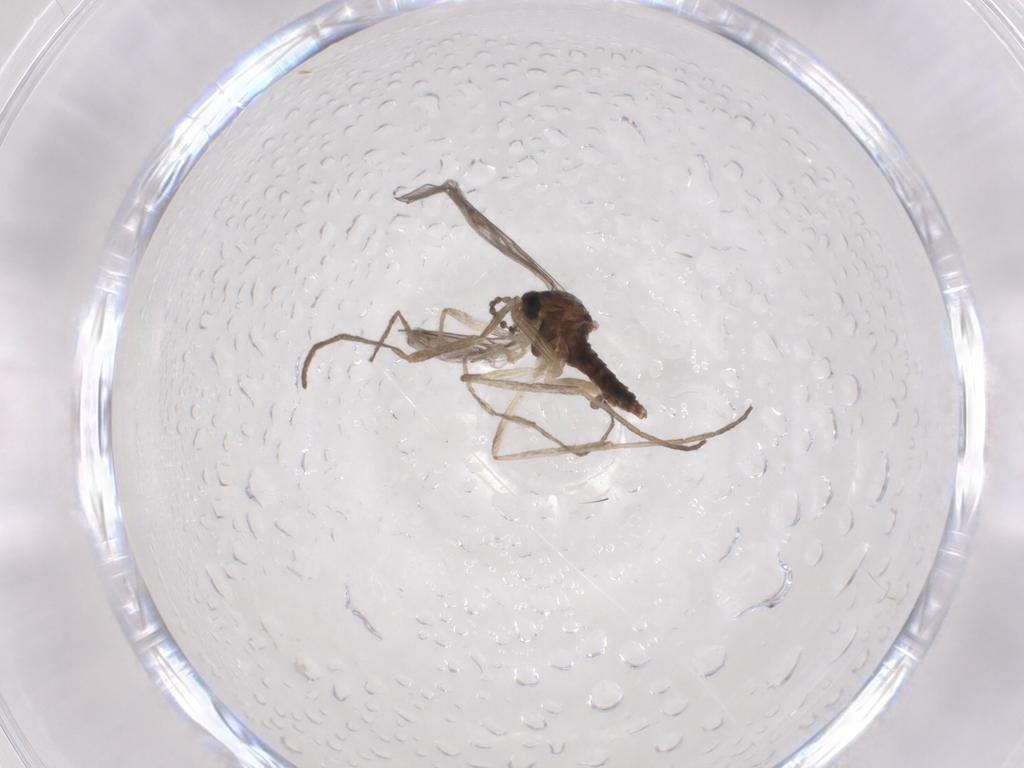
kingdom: Animalia
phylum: Arthropoda
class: Insecta
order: Diptera
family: Cecidomyiidae
